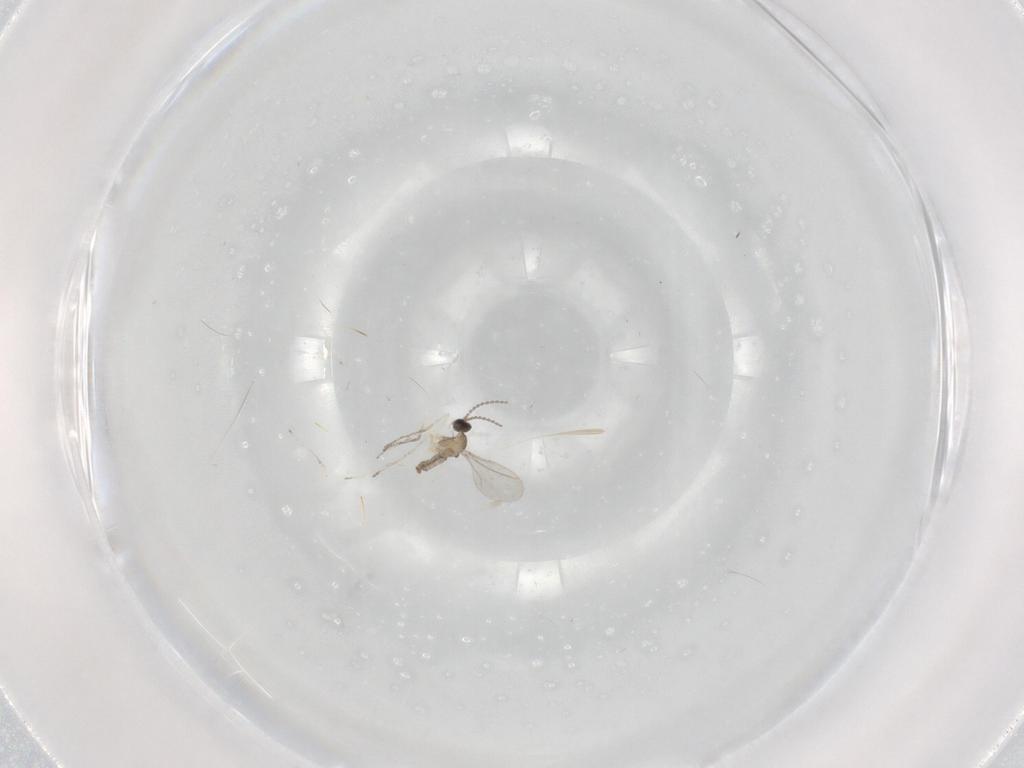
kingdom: Animalia
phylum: Arthropoda
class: Insecta
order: Diptera
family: Cecidomyiidae
